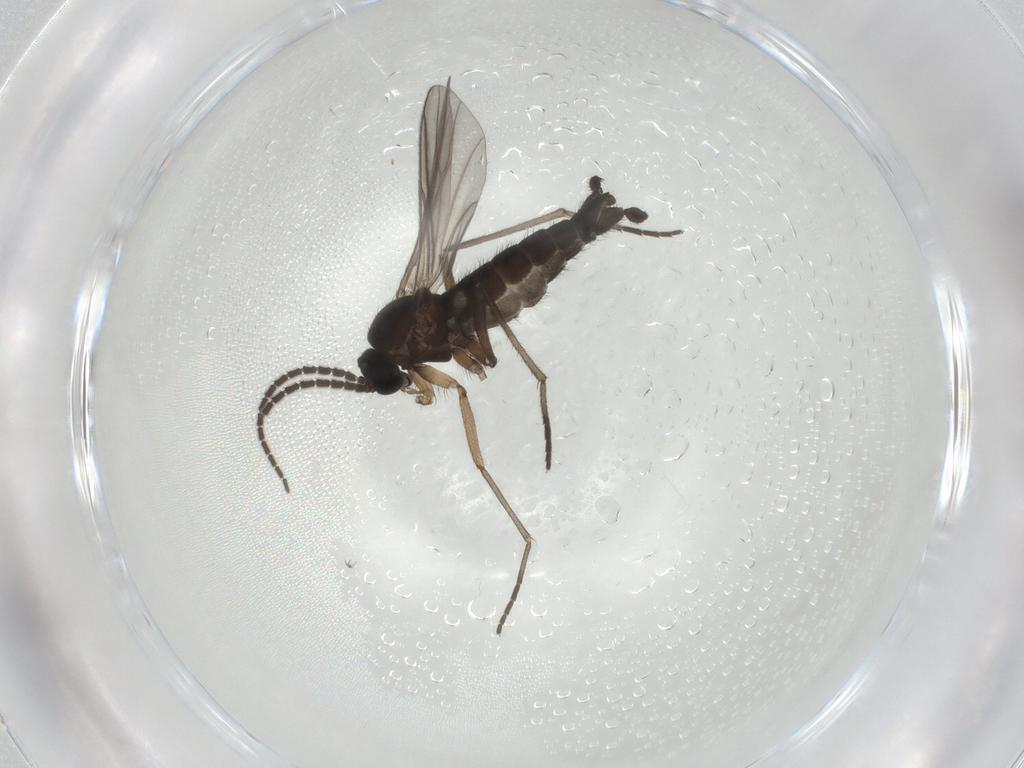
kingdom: Animalia
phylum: Arthropoda
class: Insecta
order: Diptera
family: Sciaridae
